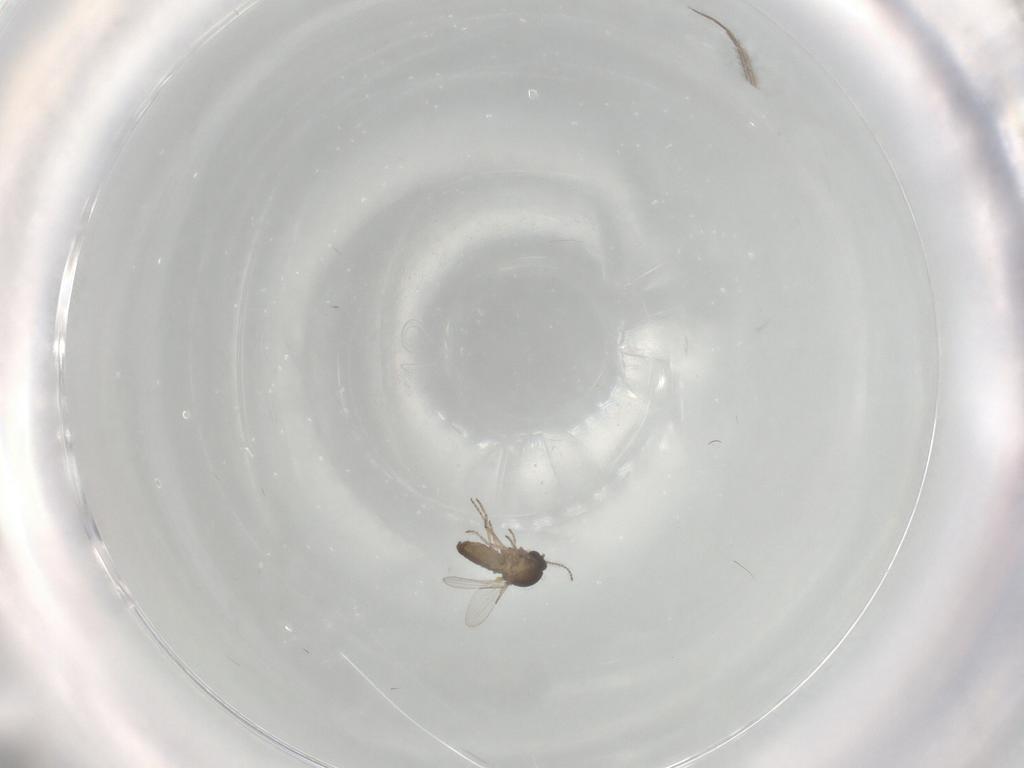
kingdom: Animalia
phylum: Arthropoda
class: Insecta
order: Diptera
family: Ceratopogonidae
